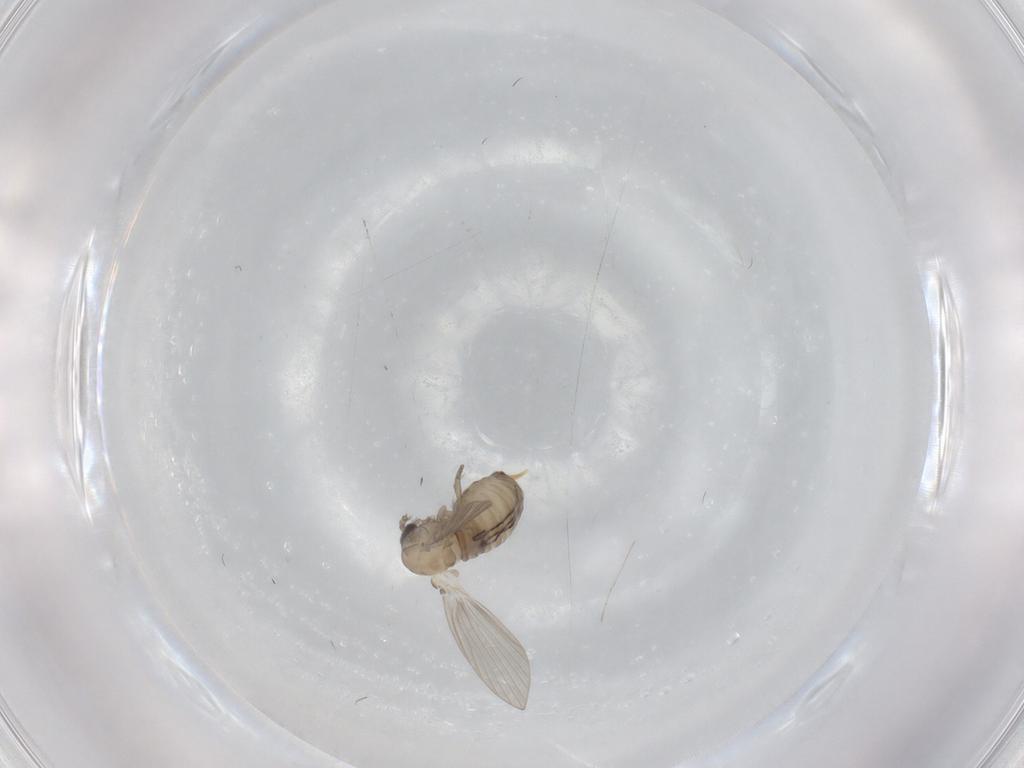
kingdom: Animalia
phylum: Arthropoda
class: Insecta
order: Diptera
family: Psychodidae
